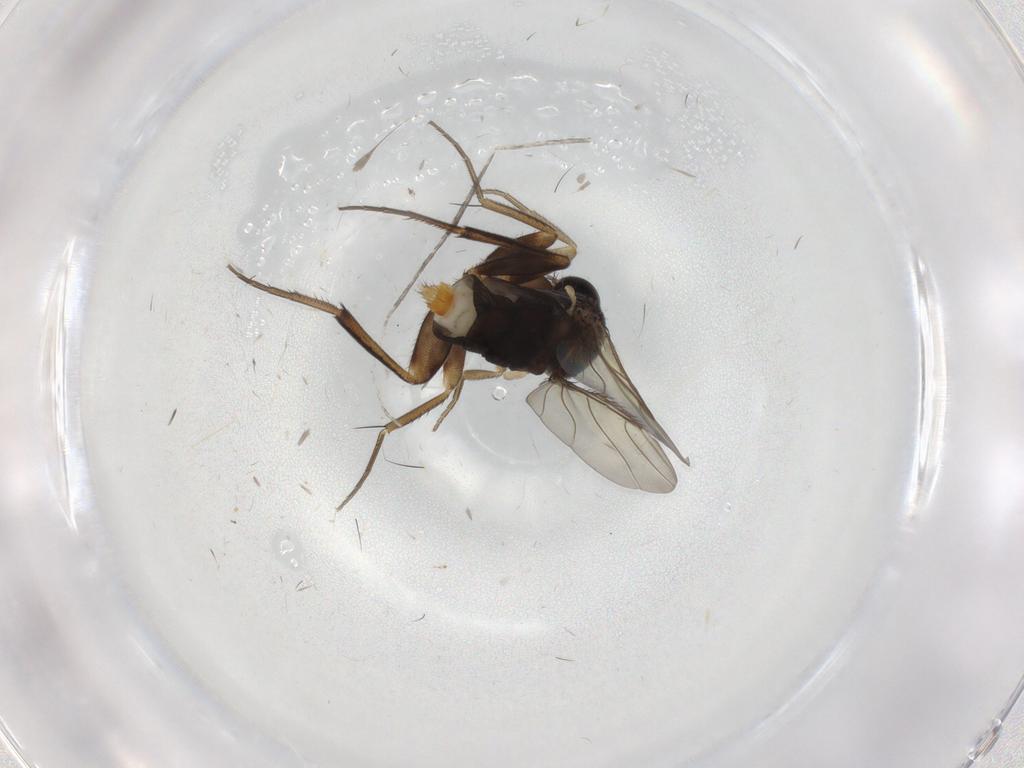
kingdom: Animalia
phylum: Arthropoda
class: Insecta
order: Diptera
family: Phoridae
